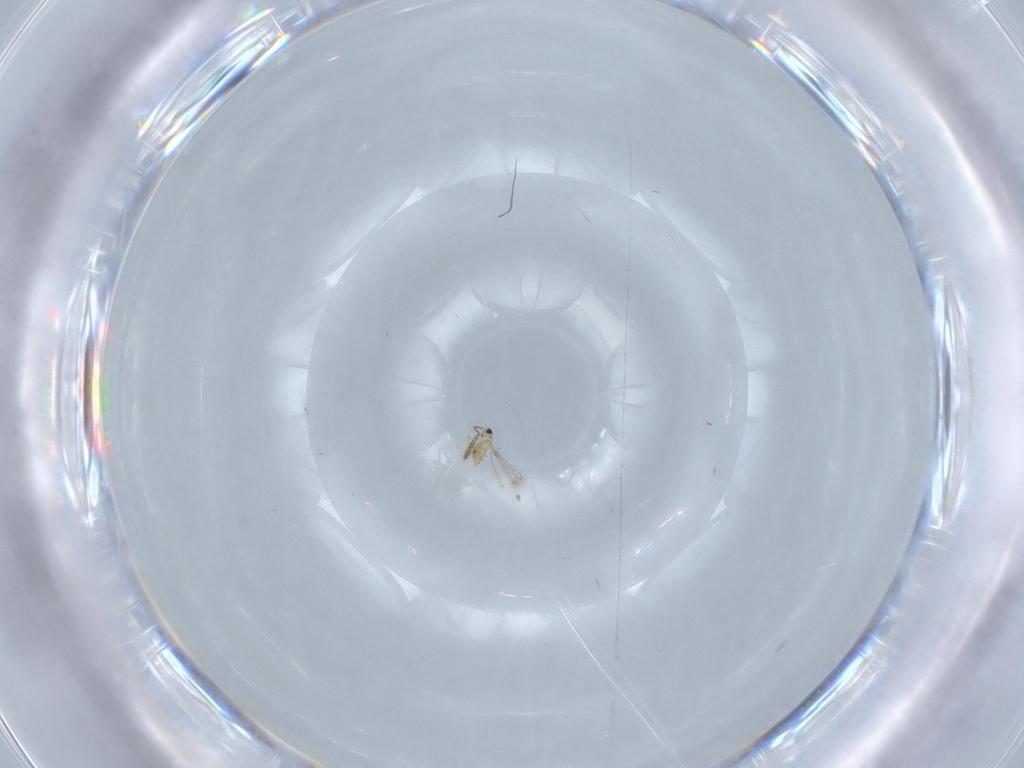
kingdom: Animalia
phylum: Arthropoda
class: Insecta
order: Hymenoptera
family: Mymaridae
